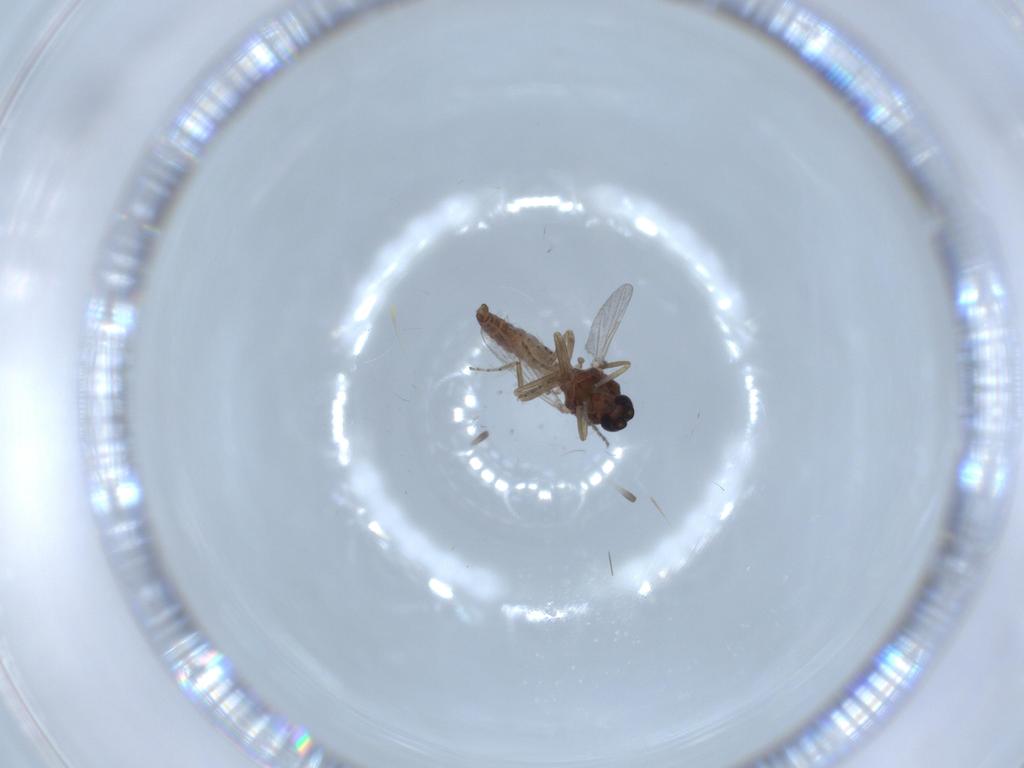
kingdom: Animalia
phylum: Arthropoda
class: Insecta
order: Diptera
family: Ceratopogonidae
